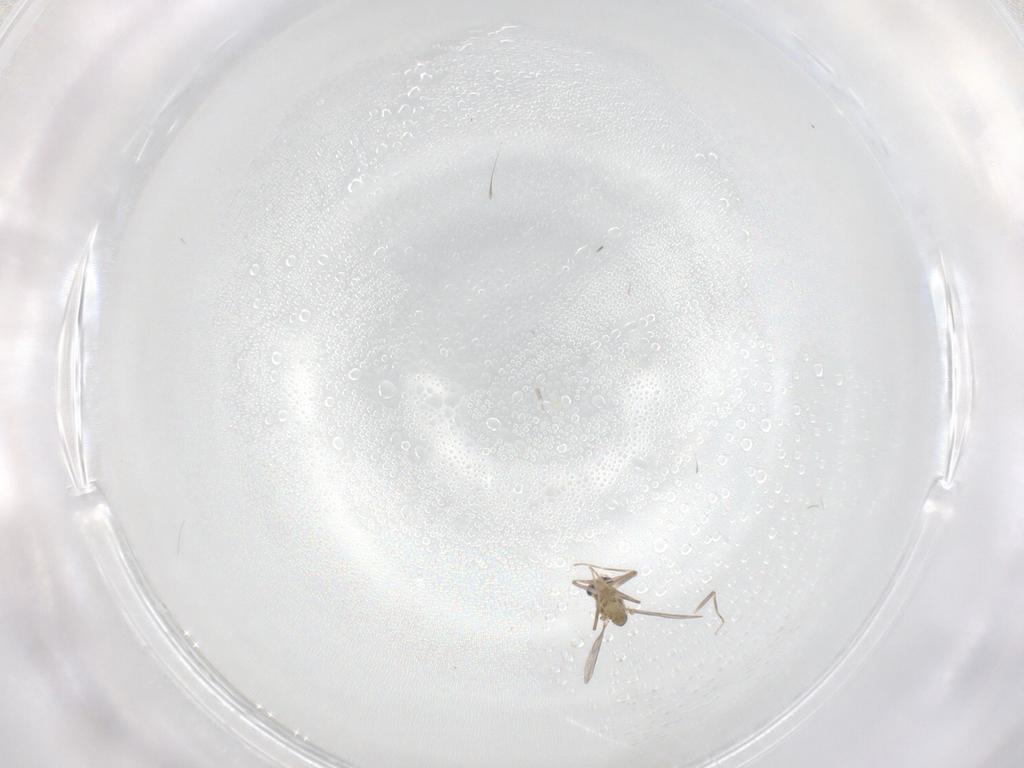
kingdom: Animalia
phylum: Arthropoda
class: Insecta
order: Diptera
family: Chironomidae
